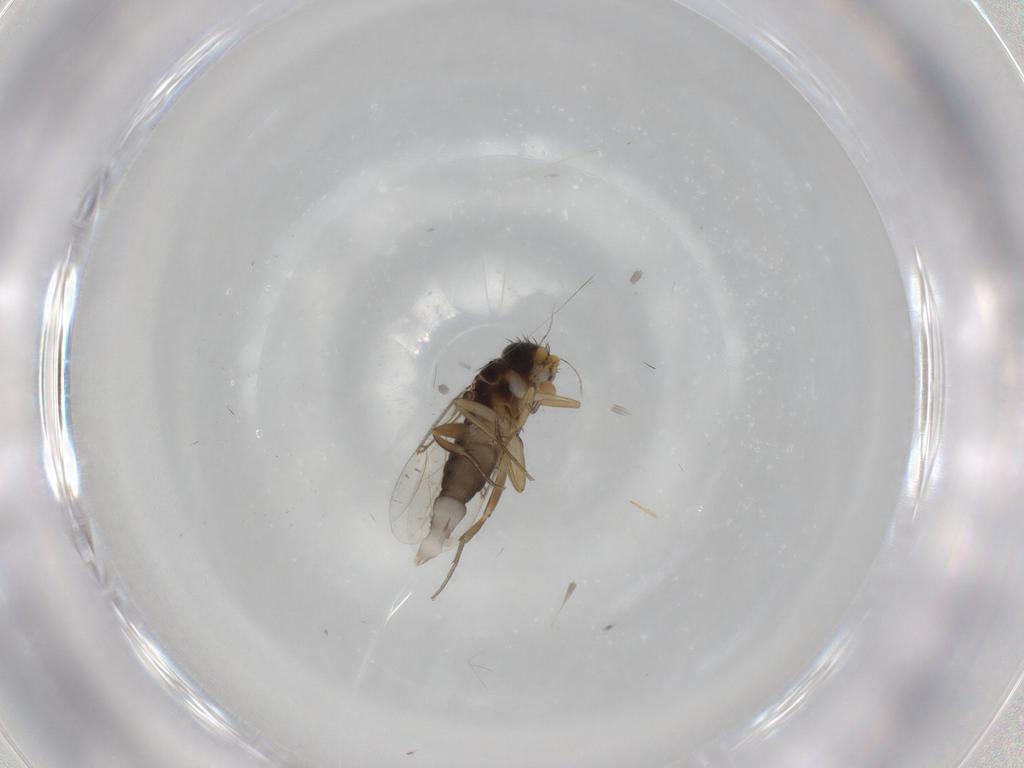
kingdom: Animalia
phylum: Arthropoda
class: Insecta
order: Diptera
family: Phoridae
